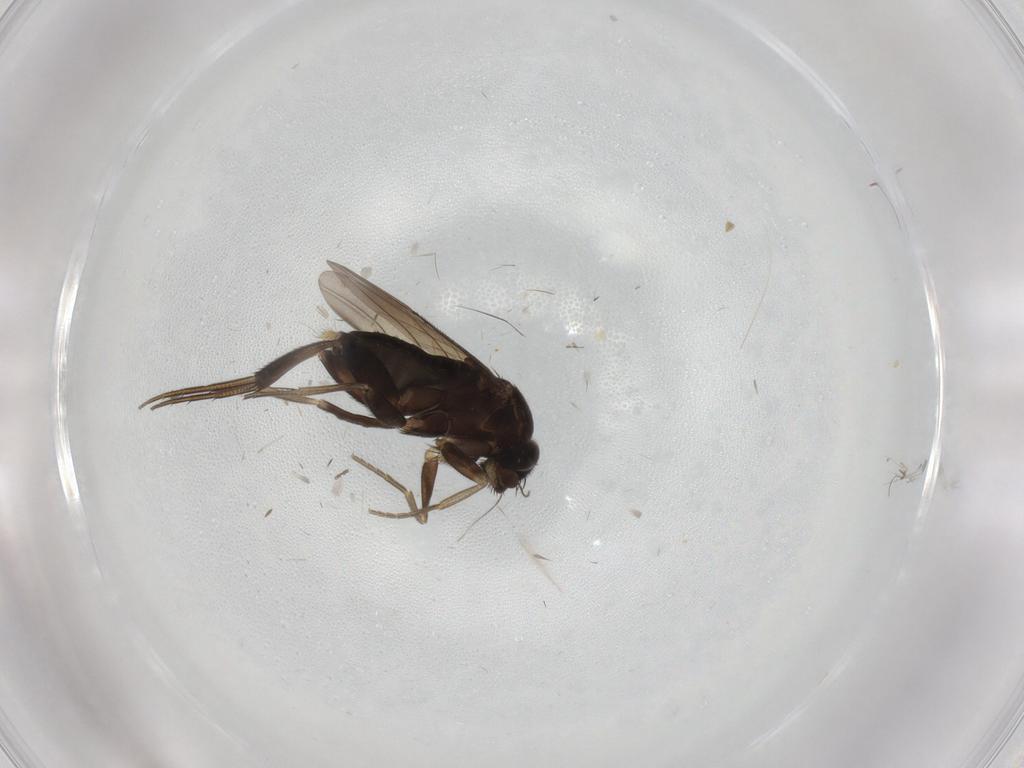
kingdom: Animalia
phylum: Arthropoda
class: Insecta
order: Diptera
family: Phoridae
